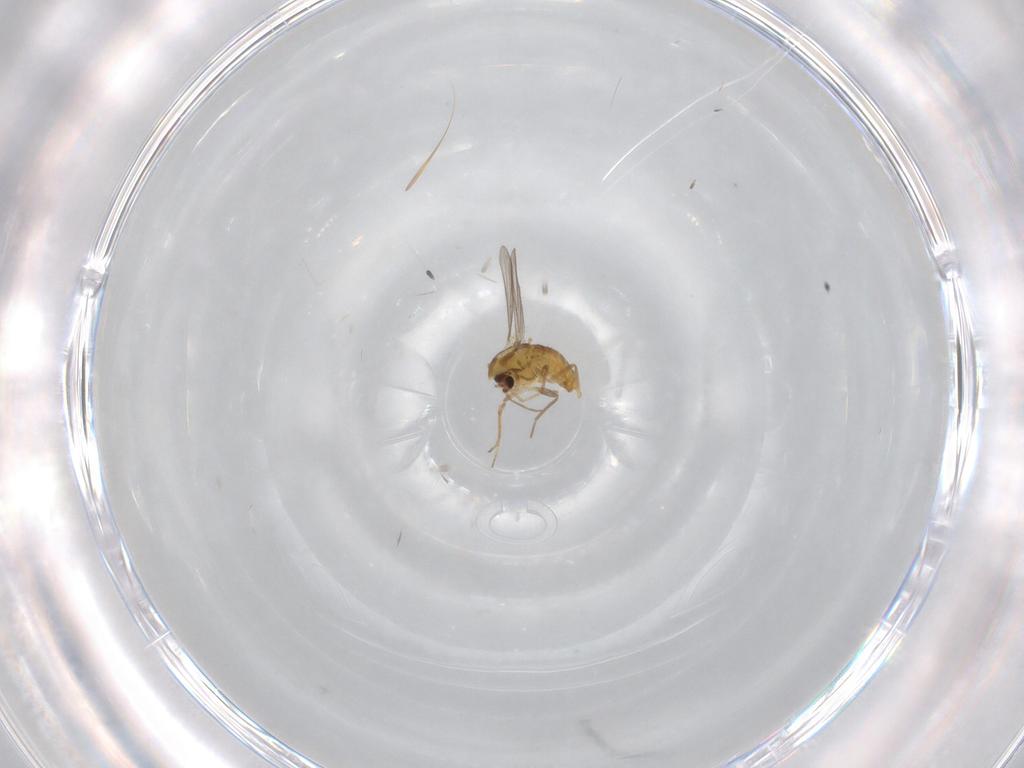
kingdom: Animalia
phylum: Arthropoda
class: Insecta
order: Diptera
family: Chironomidae
